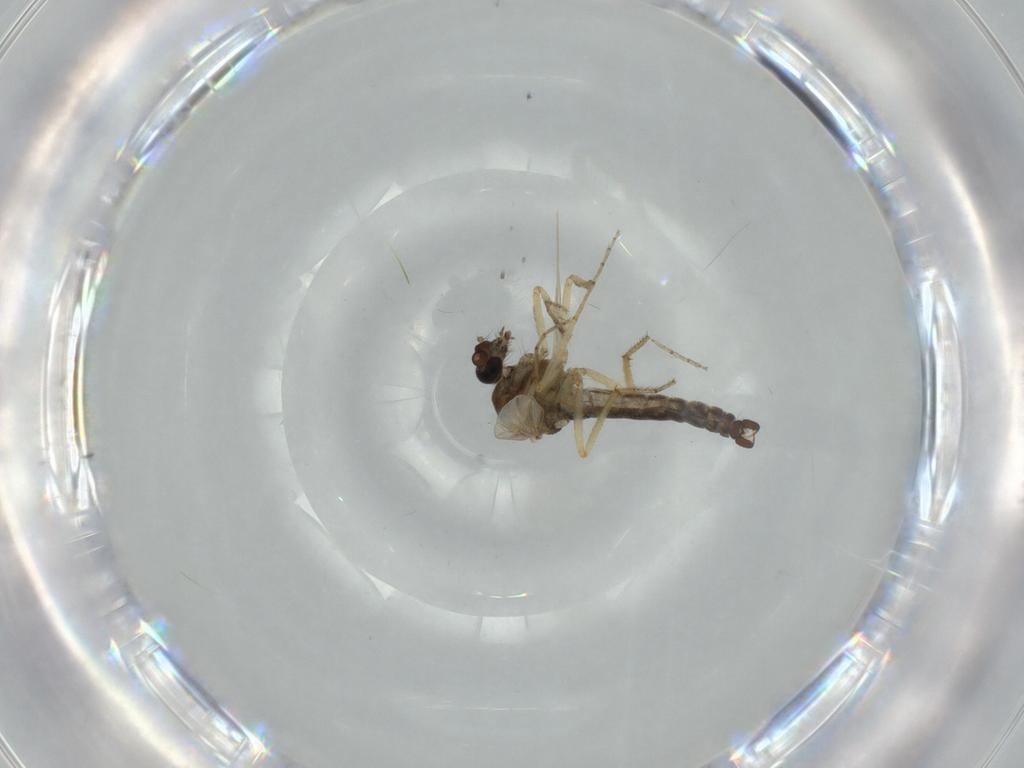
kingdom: Animalia
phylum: Arthropoda
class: Insecta
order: Diptera
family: Ceratopogonidae
